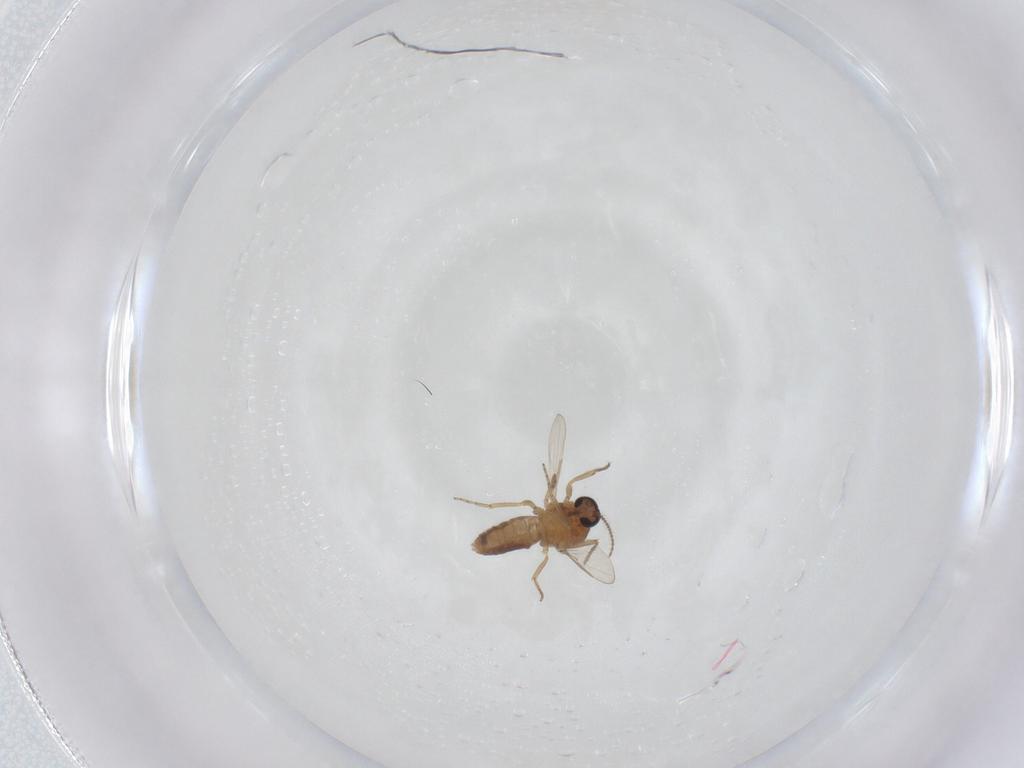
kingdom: Animalia
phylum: Arthropoda
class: Insecta
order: Diptera
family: Ceratopogonidae
